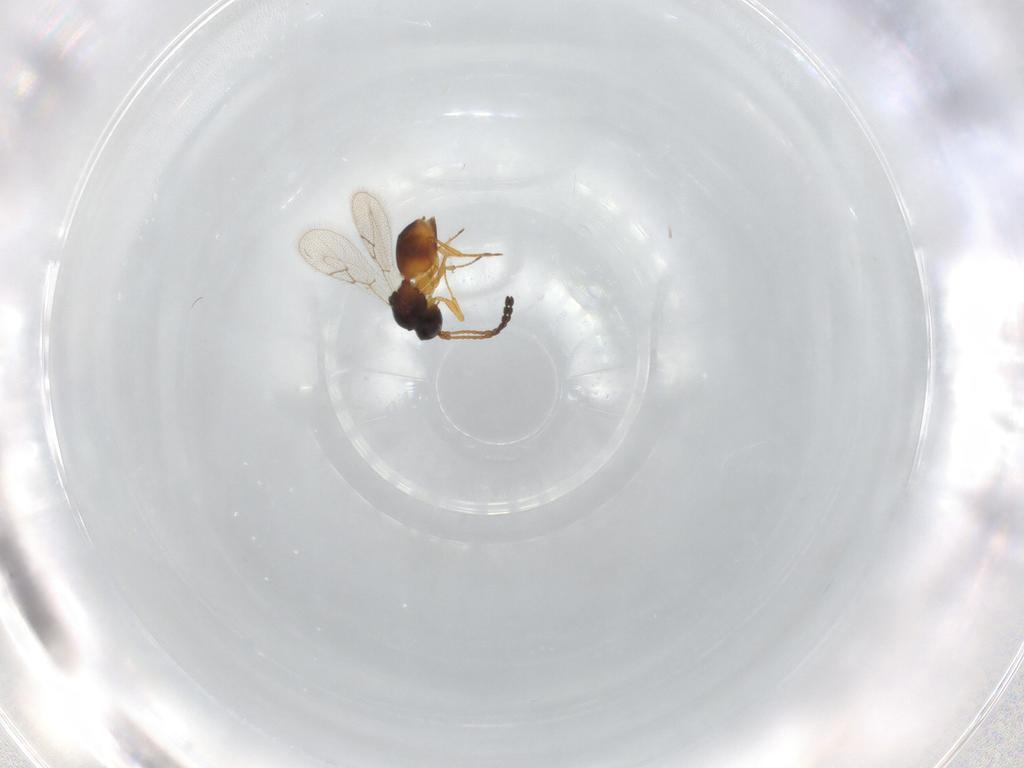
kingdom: Animalia
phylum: Arthropoda
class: Insecta
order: Hymenoptera
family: Figitidae
